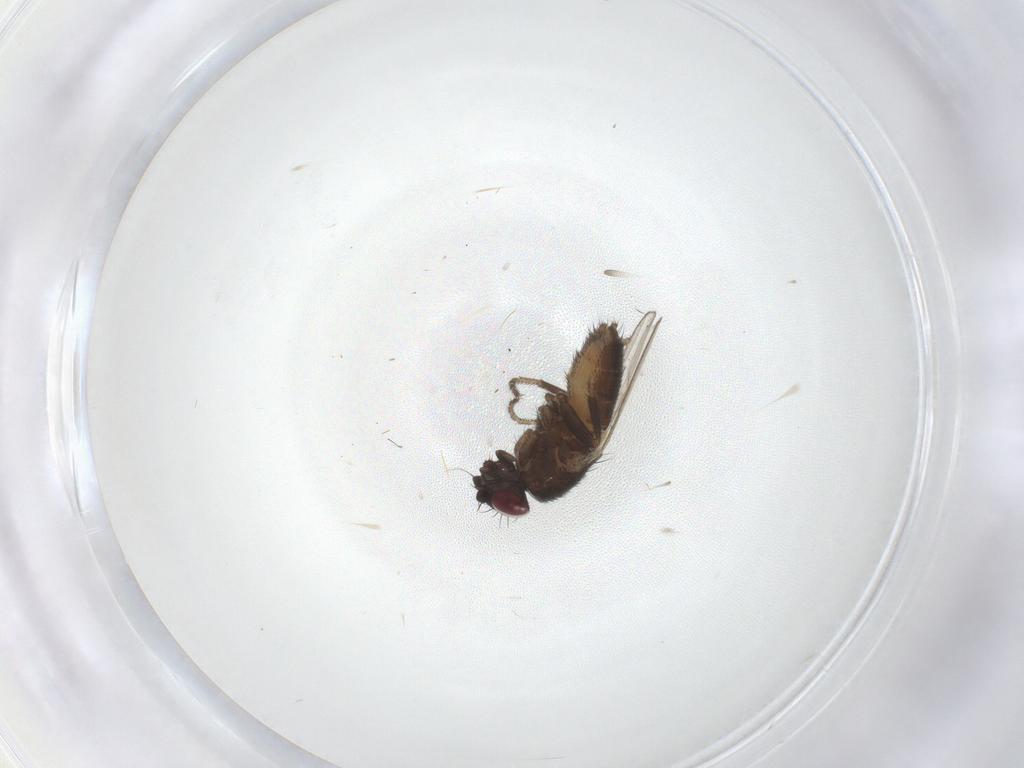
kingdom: Animalia
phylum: Arthropoda
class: Insecta
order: Diptera
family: Milichiidae
